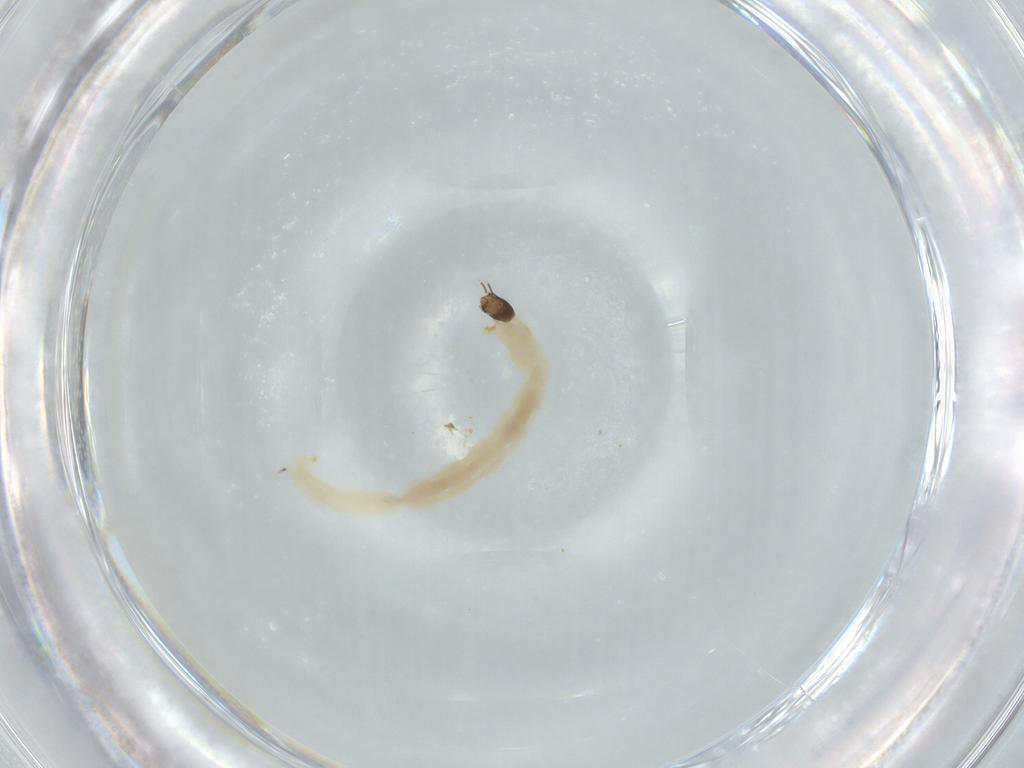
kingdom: Animalia
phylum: Arthropoda
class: Insecta
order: Diptera
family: Chironomidae
